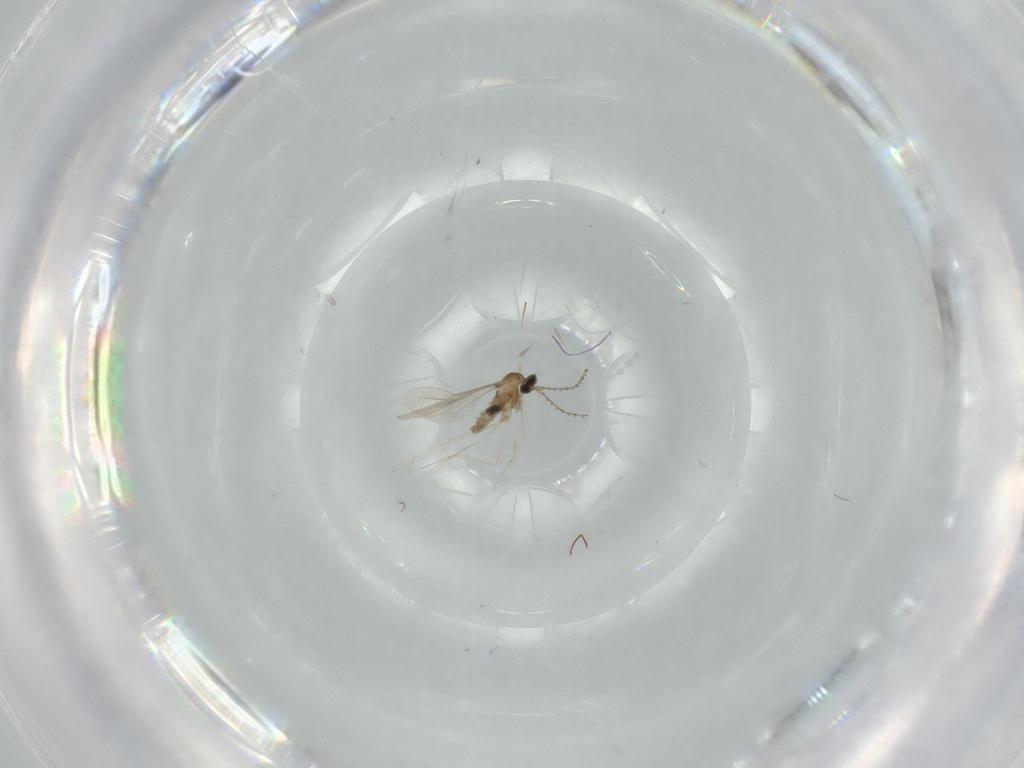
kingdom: Animalia
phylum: Arthropoda
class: Insecta
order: Diptera
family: Cecidomyiidae
